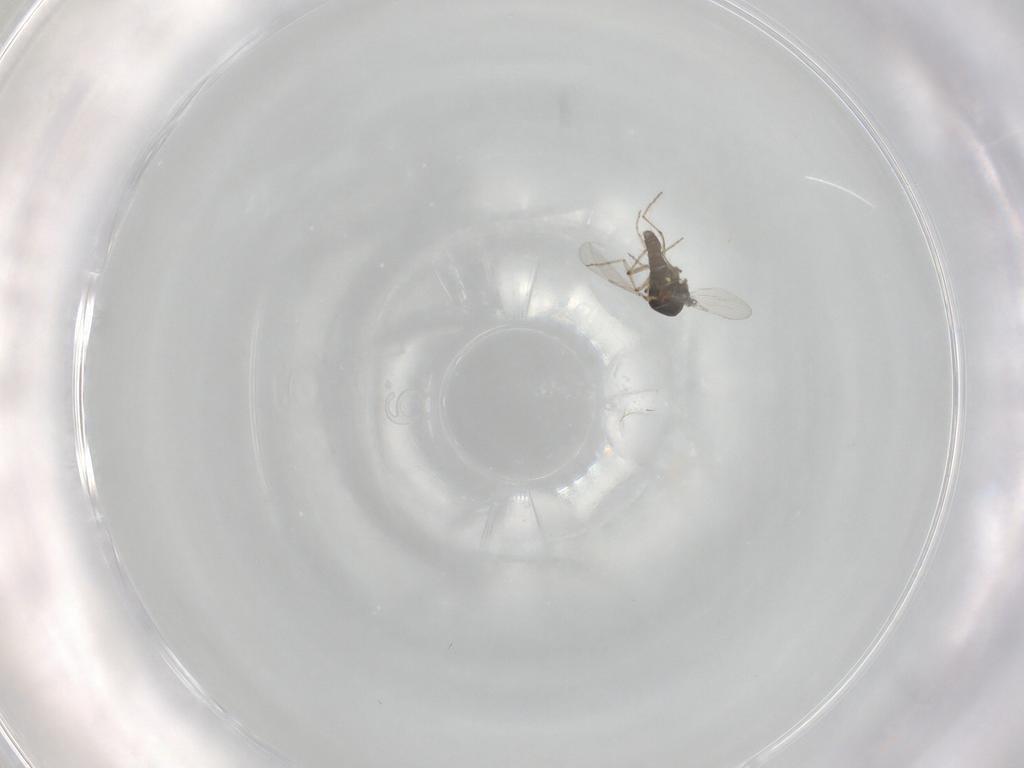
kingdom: Animalia
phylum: Arthropoda
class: Insecta
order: Diptera
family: Ceratopogonidae
